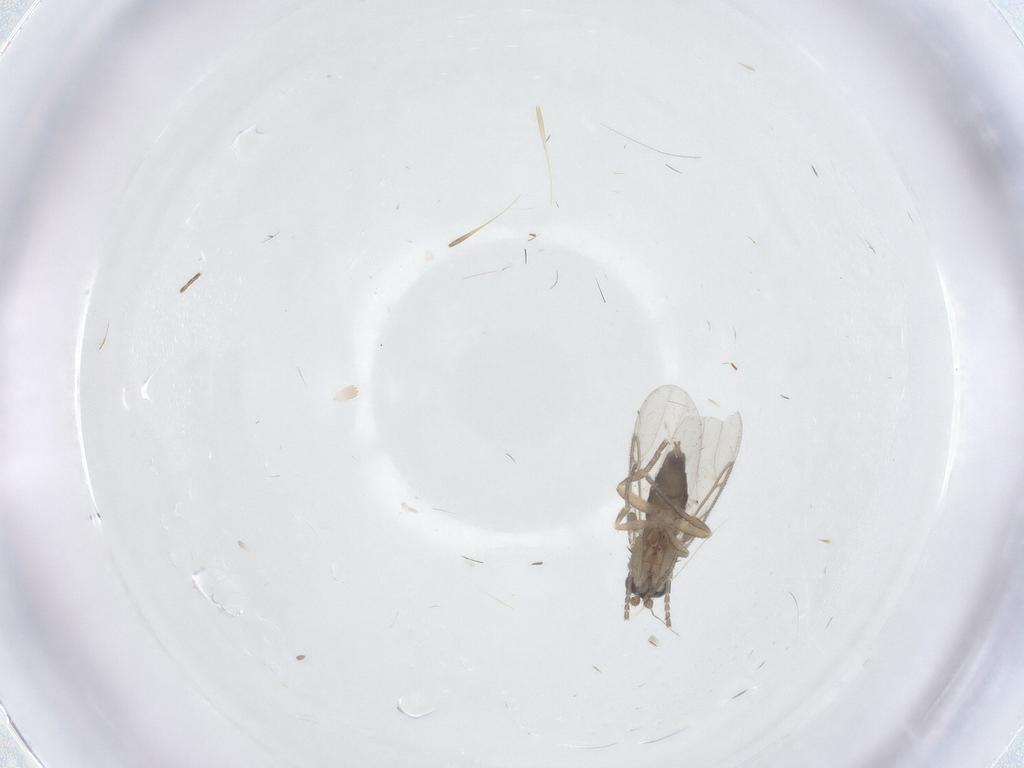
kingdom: Animalia
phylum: Arthropoda
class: Insecta
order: Diptera
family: Phoridae
